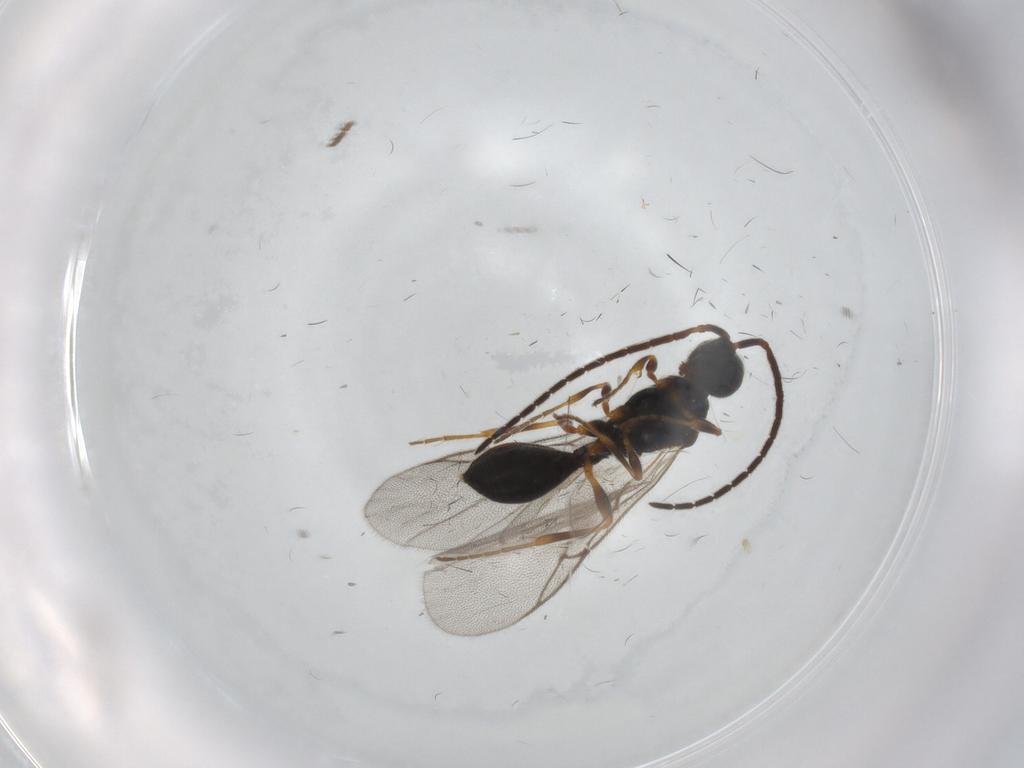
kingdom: Animalia
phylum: Arthropoda
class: Insecta
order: Diptera
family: Cecidomyiidae
